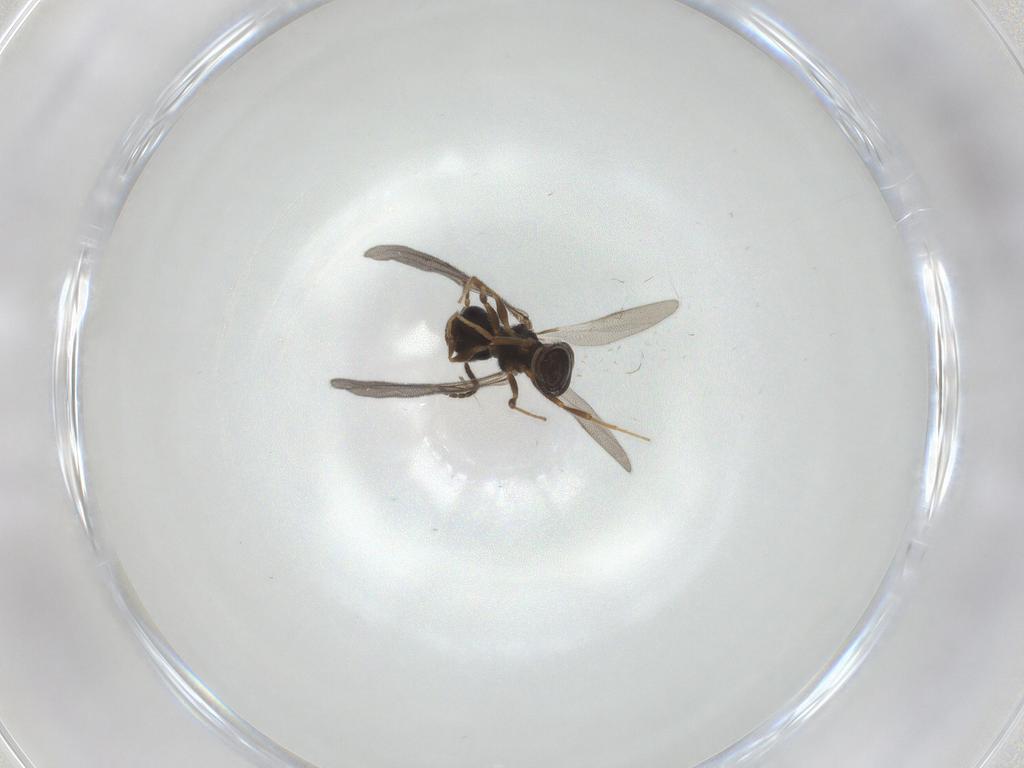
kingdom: Animalia
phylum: Arthropoda
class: Insecta
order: Hymenoptera
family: Bethylidae
